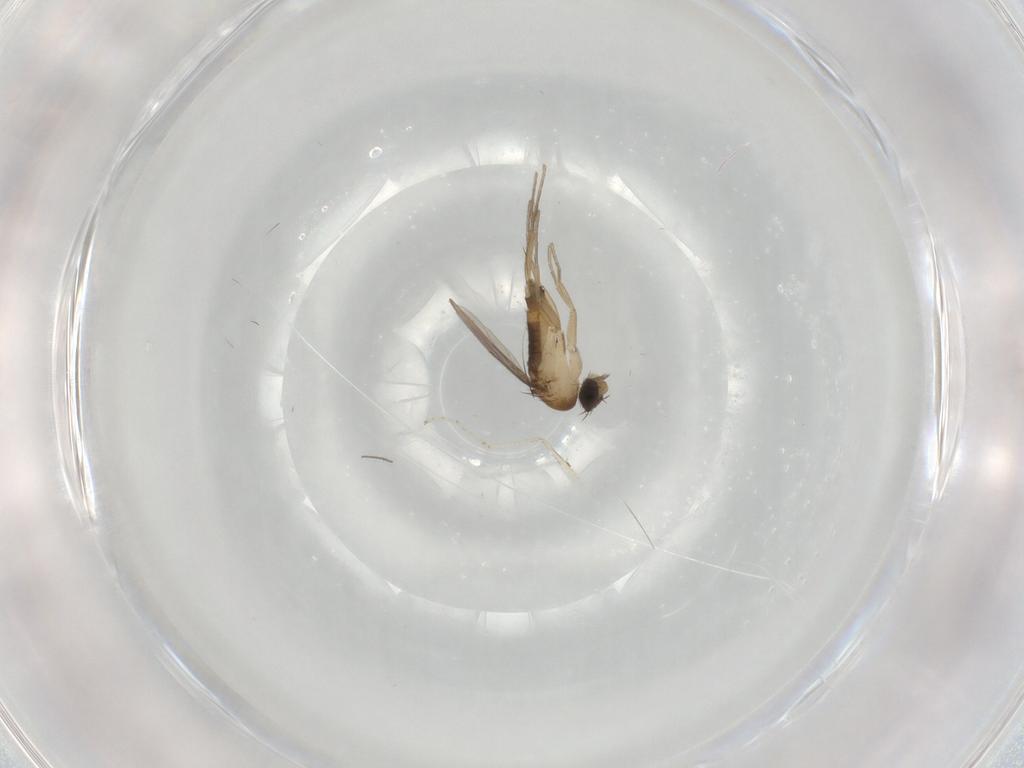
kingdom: Animalia
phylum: Arthropoda
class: Insecta
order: Diptera
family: Phoridae
